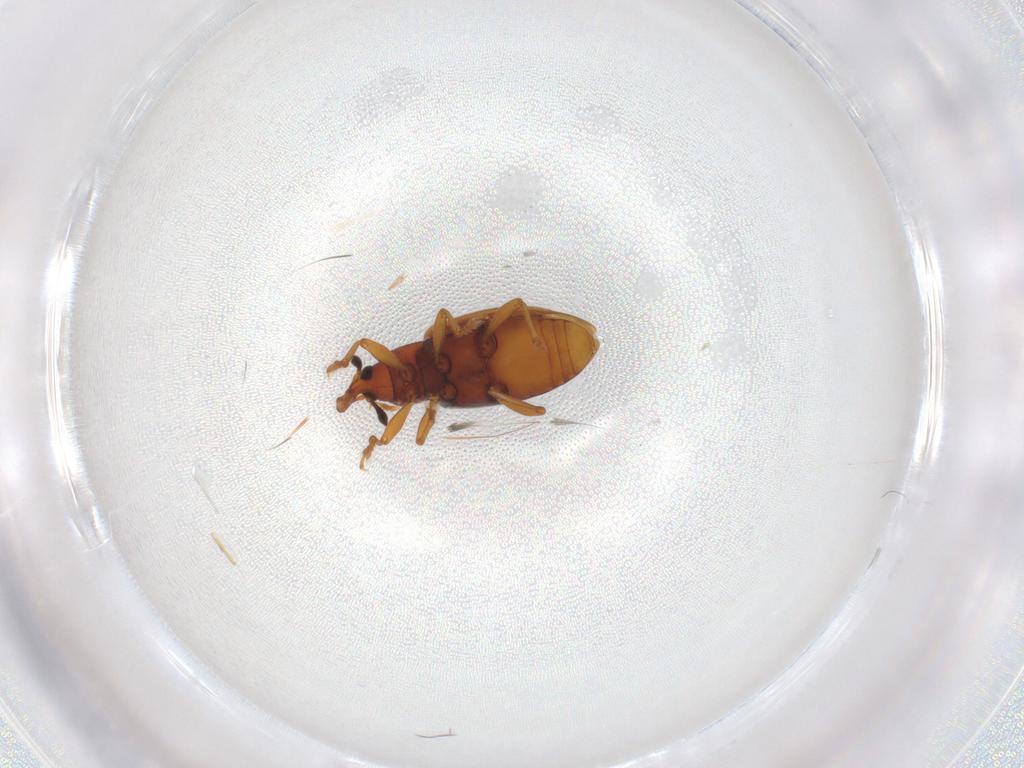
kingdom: Animalia
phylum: Arthropoda
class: Insecta
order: Coleoptera
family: Curculionidae
